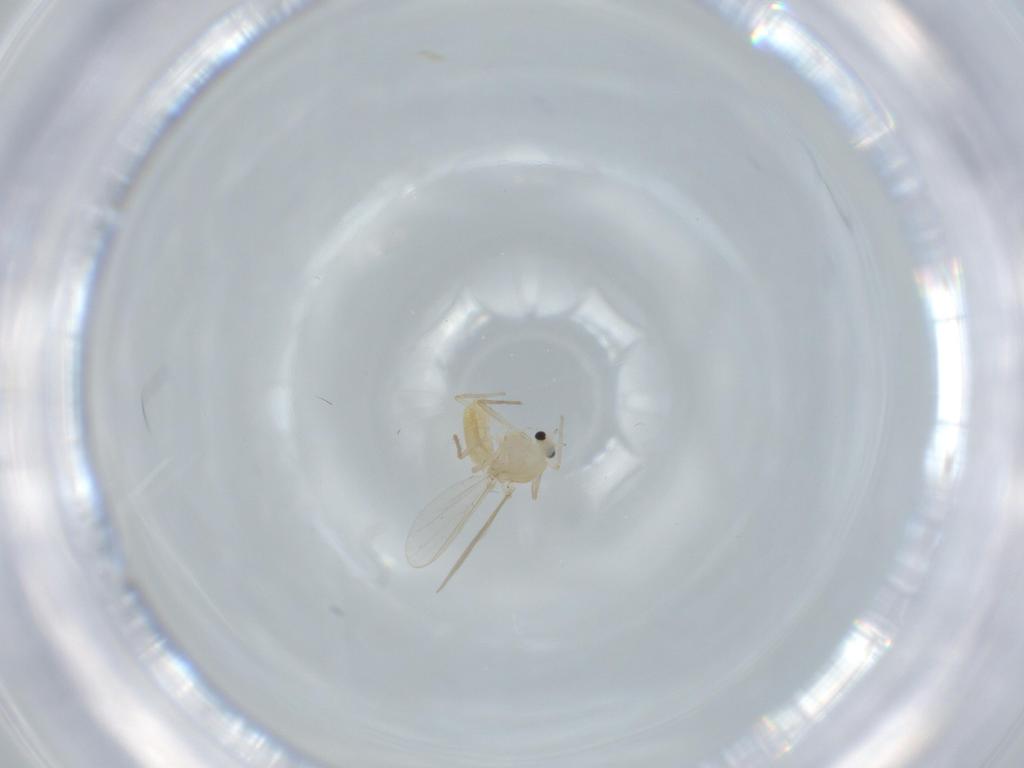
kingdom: Animalia
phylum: Arthropoda
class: Insecta
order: Diptera
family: Chironomidae
